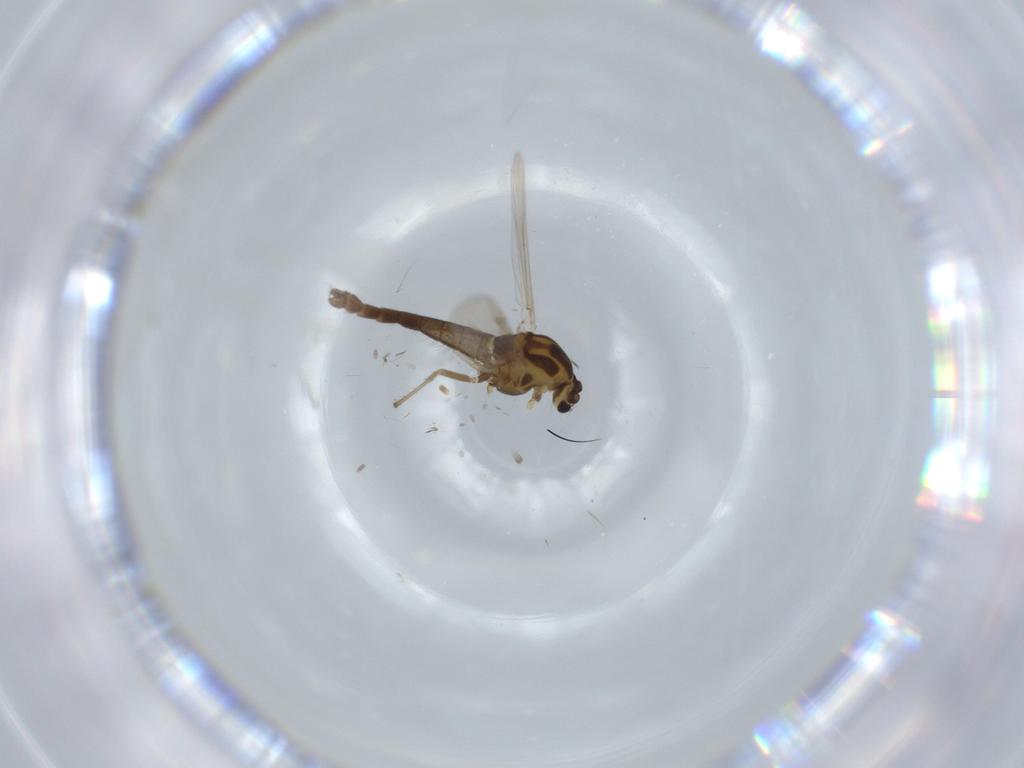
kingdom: Animalia
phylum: Arthropoda
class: Insecta
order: Diptera
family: Chironomidae
